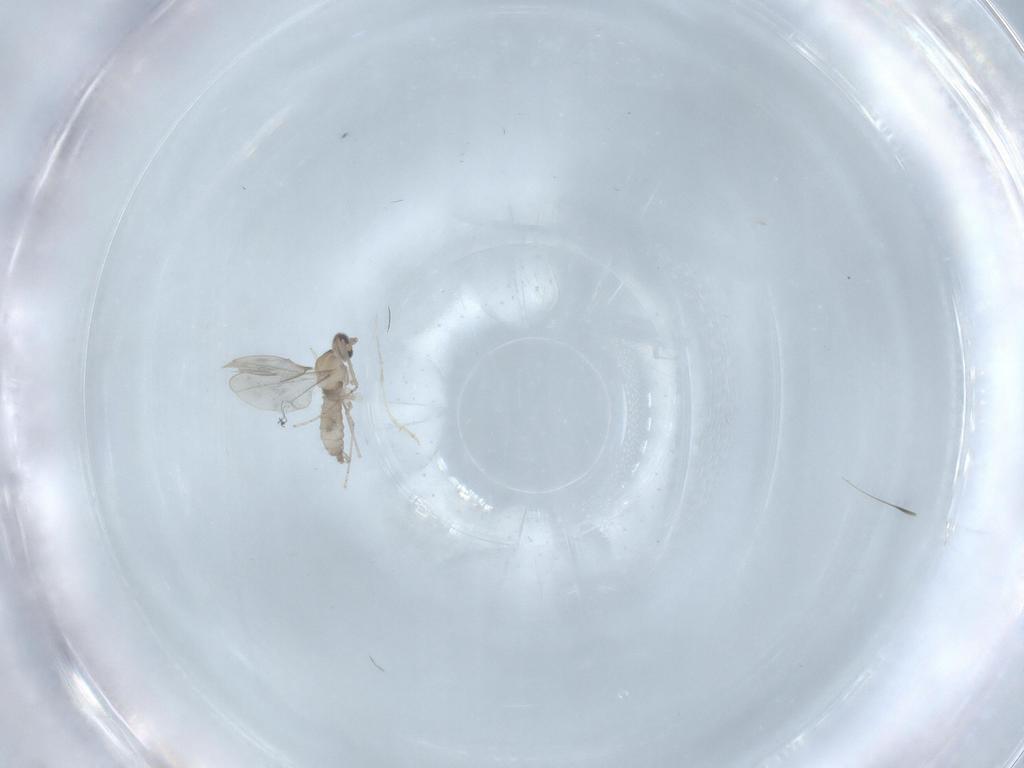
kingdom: Animalia
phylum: Arthropoda
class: Insecta
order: Diptera
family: Cecidomyiidae
